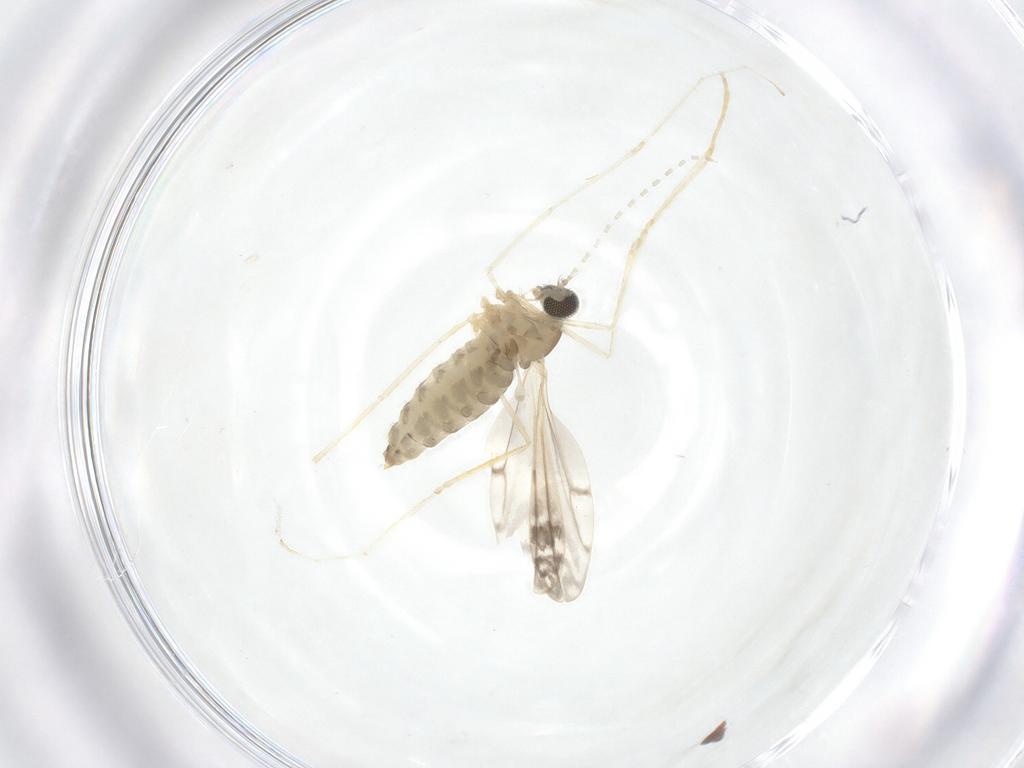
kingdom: Animalia
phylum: Arthropoda
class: Insecta
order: Diptera
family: Cecidomyiidae
